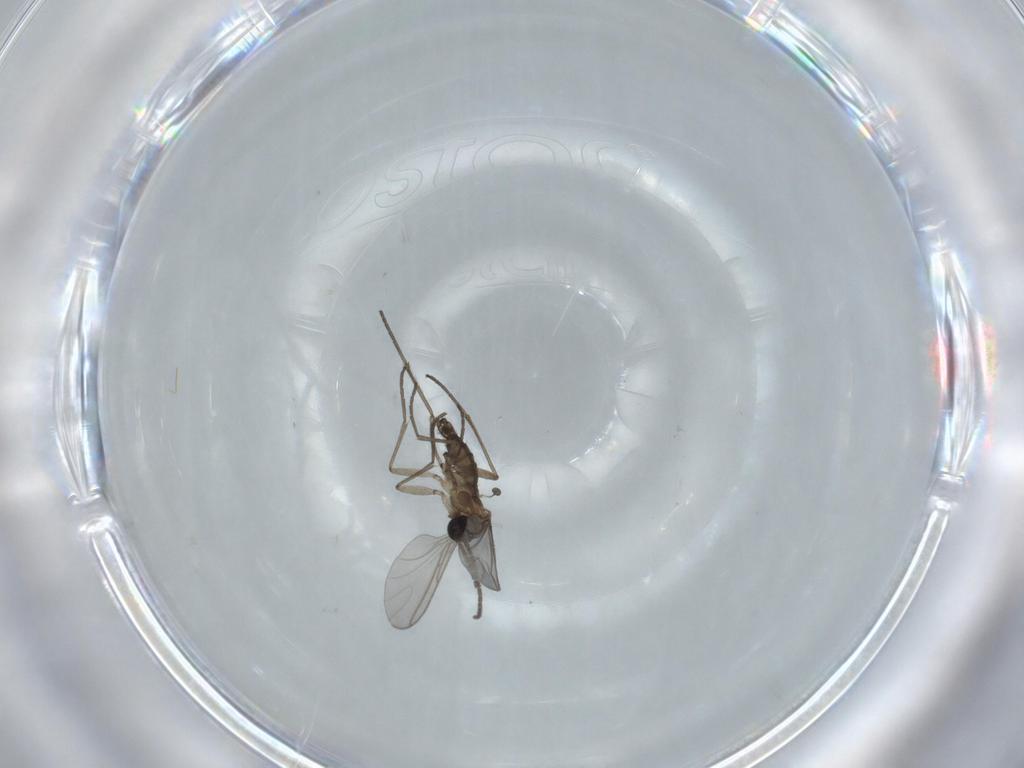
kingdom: Animalia
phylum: Arthropoda
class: Insecta
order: Diptera
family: Sciaridae
